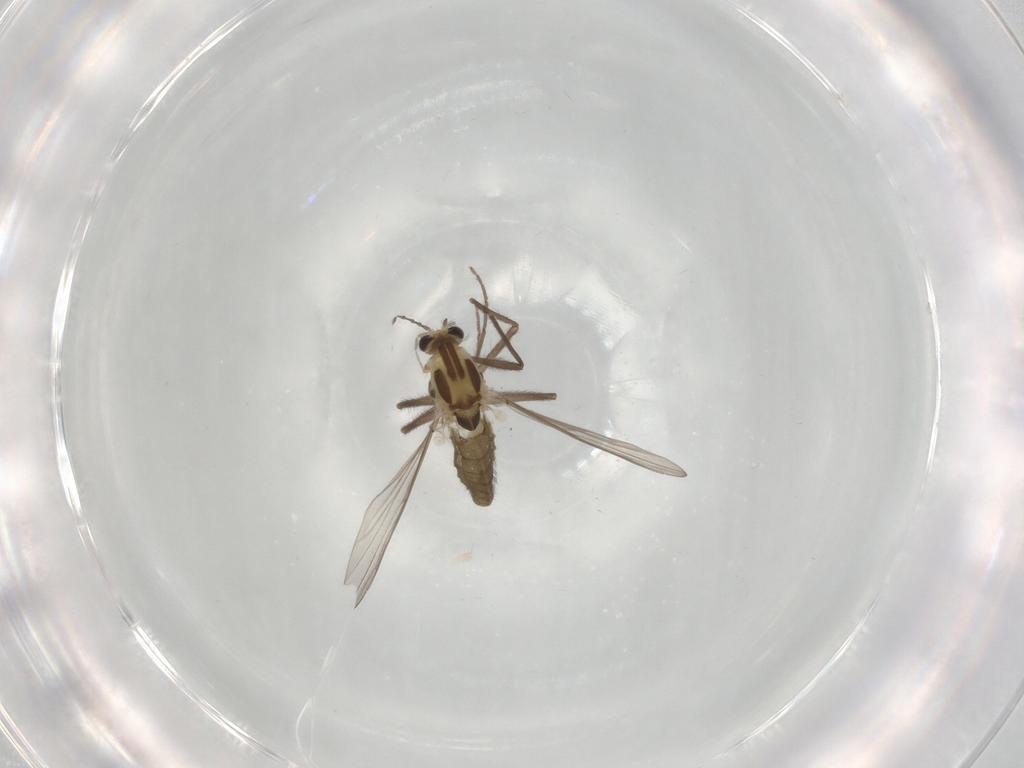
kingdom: Animalia
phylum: Arthropoda
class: Insecta
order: Diptera
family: Chironomidae
